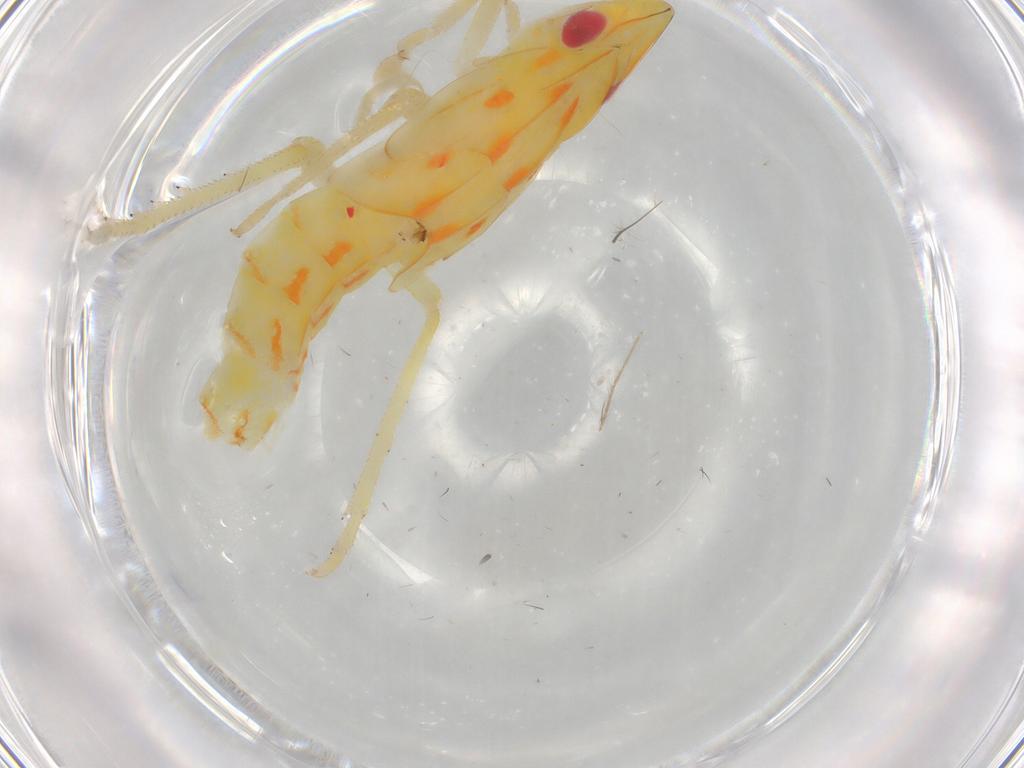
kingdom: Animalia
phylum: Arthropoda
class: Insecta
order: Hemiptera
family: Tropiduchidae
